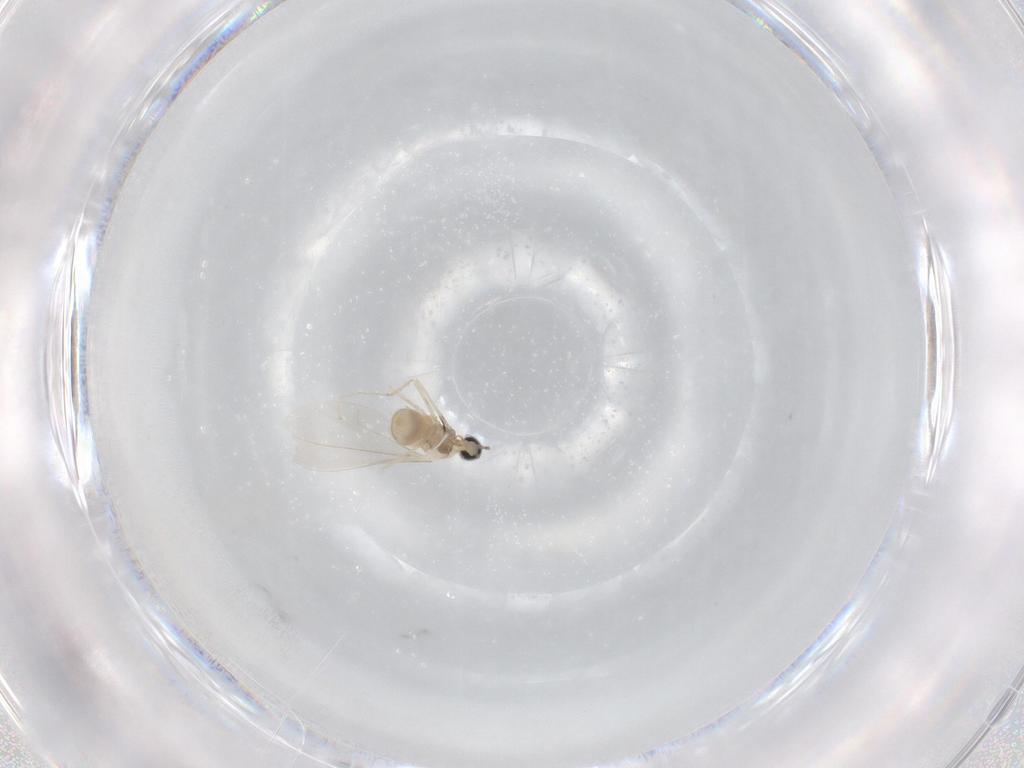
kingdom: Animalia
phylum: Arthropoda
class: Insecta
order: Diptera
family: Cecidomyiidae
